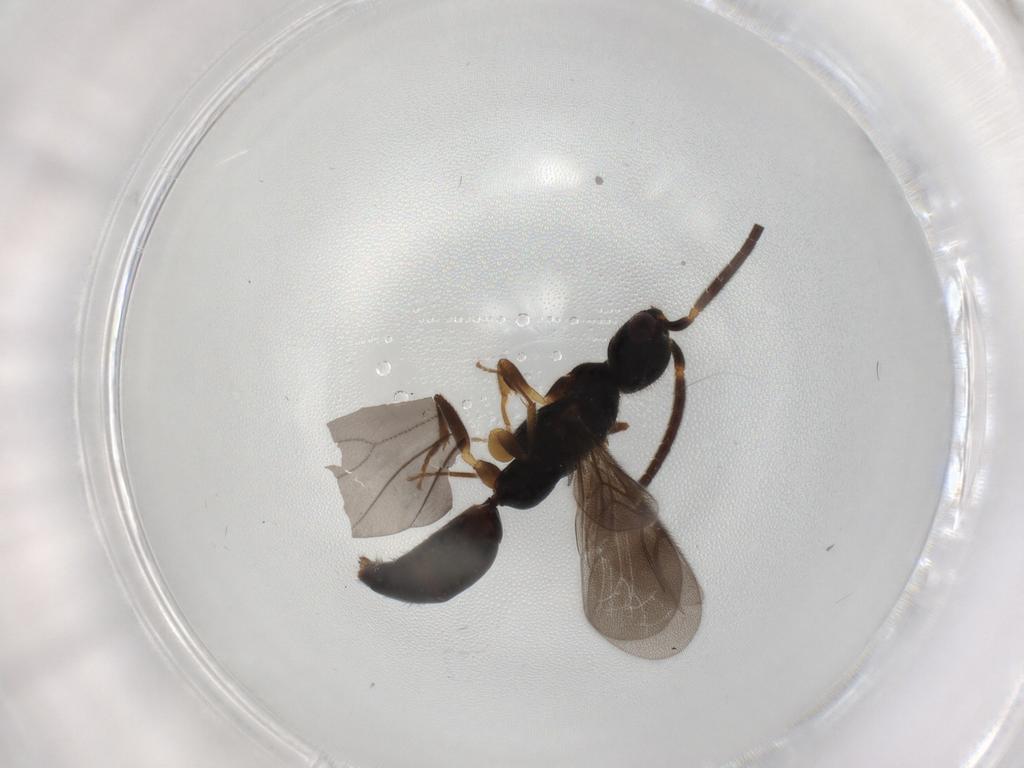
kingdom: Animalia
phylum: Arthropoda
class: Insecta
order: Hymenoptera
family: Bethylidae
